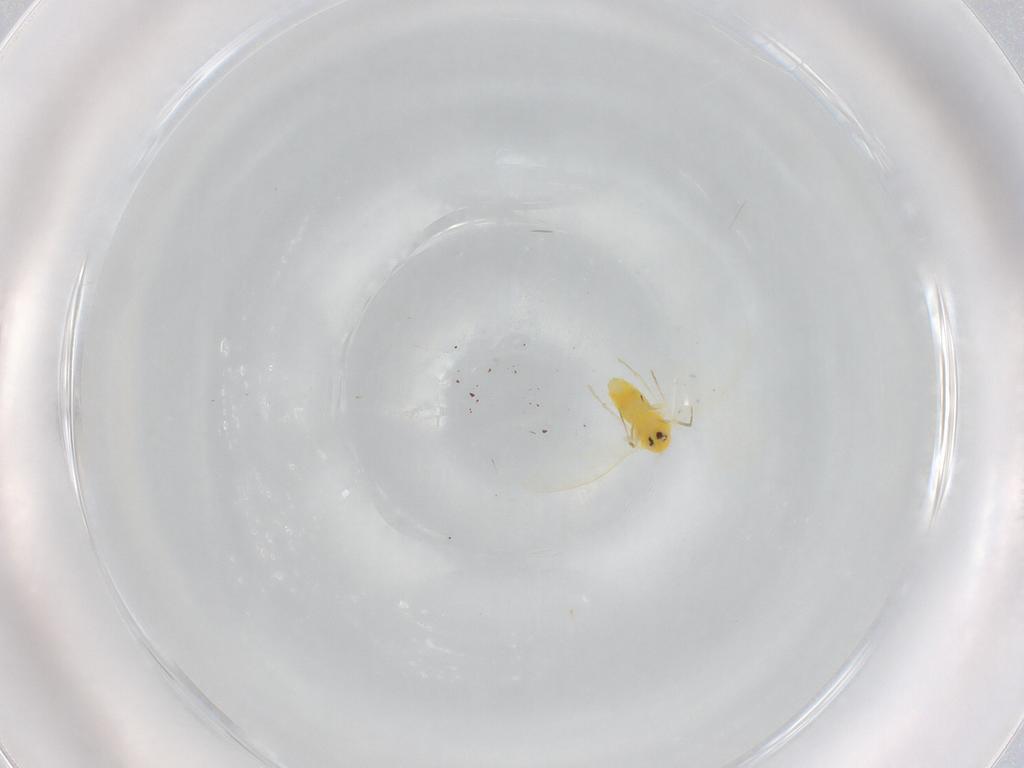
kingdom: Animalia
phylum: Arthropoda
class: Insecta
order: Hemiptera
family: Aleyrodidae
